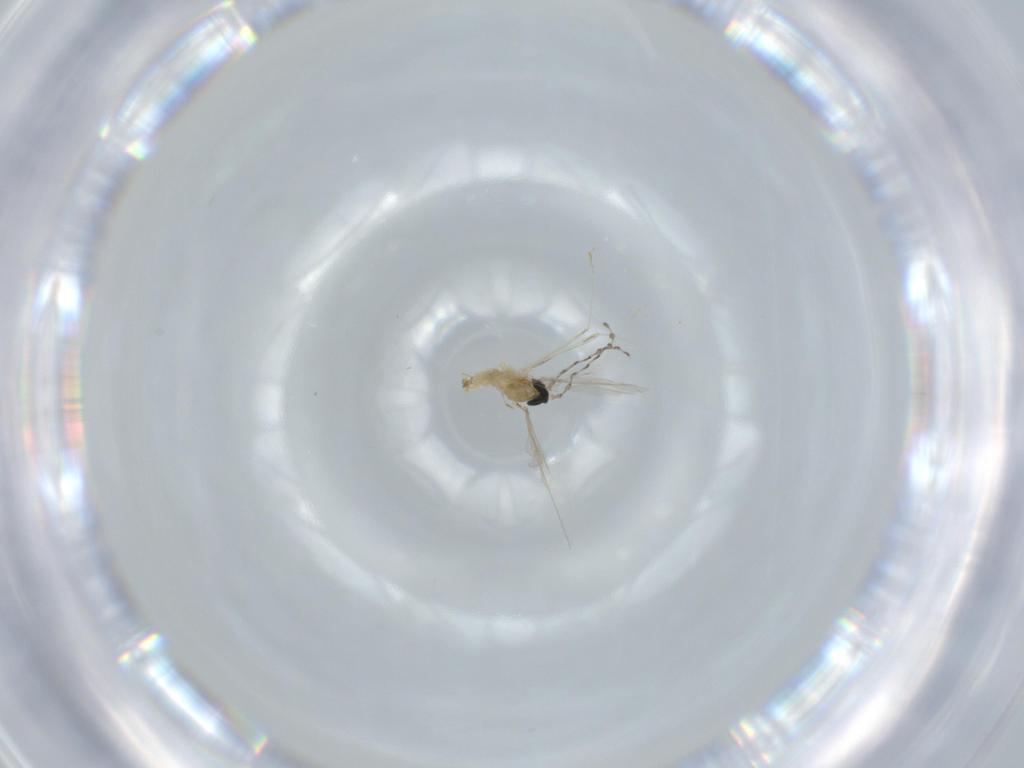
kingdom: Animalia
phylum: Arthropoda
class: Insecta
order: Diptera
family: Cecidomyiidae
